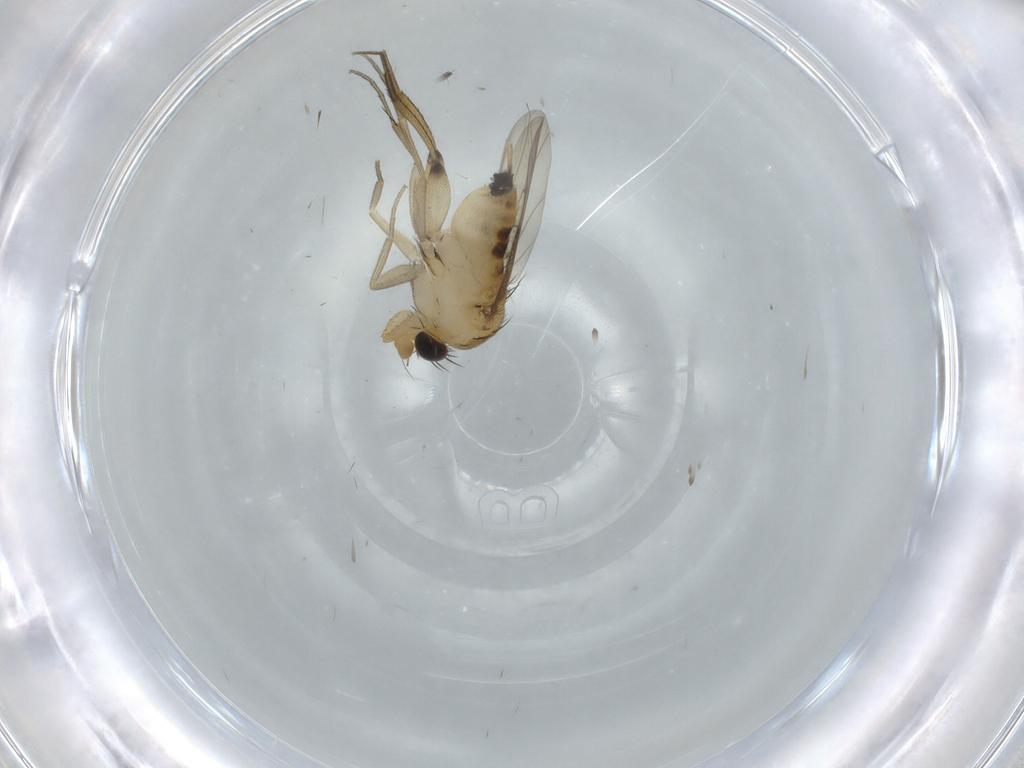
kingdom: Animalia
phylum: Arthropoda
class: Insecta
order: Diptera
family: Phoridae
